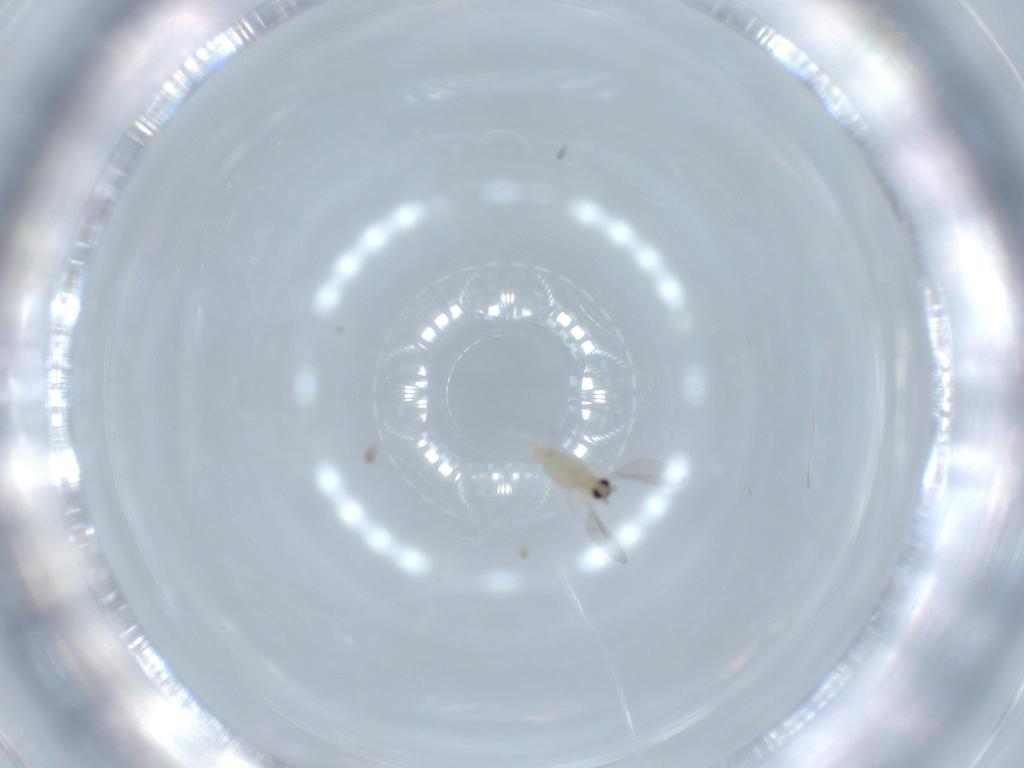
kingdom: Animalia
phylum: Arthropoda
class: Insecta
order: Diptera
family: Cecidomyiidae
